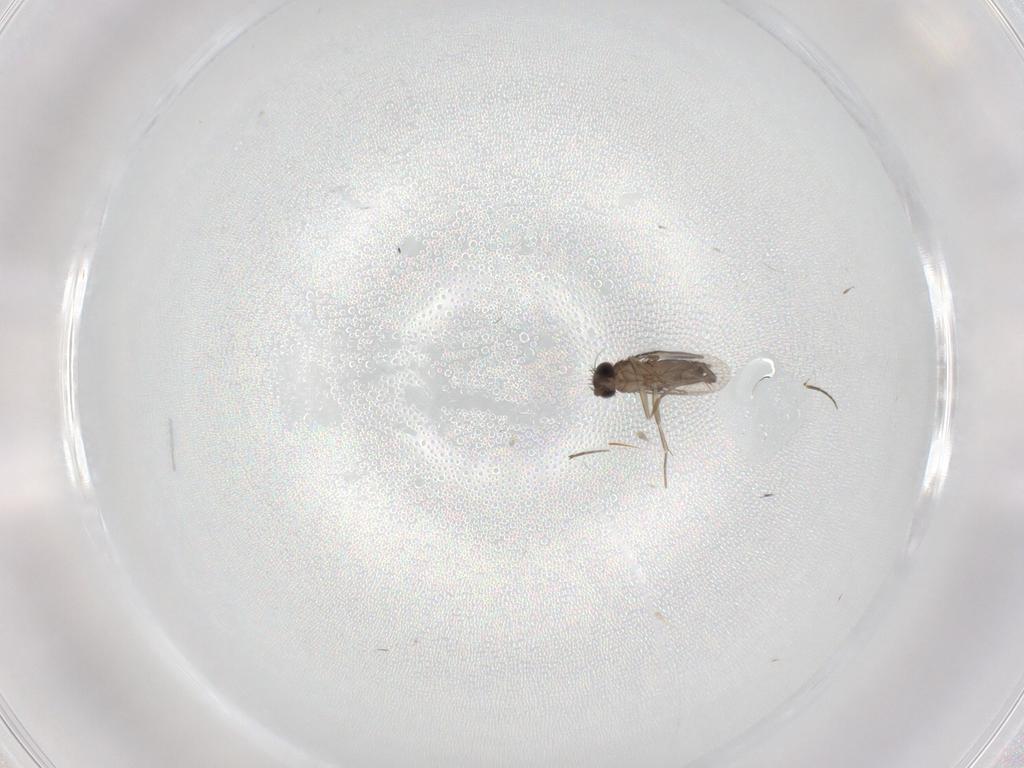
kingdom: Animalia
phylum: Arthropoda
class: Insecta
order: Diptera
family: Phoridae
